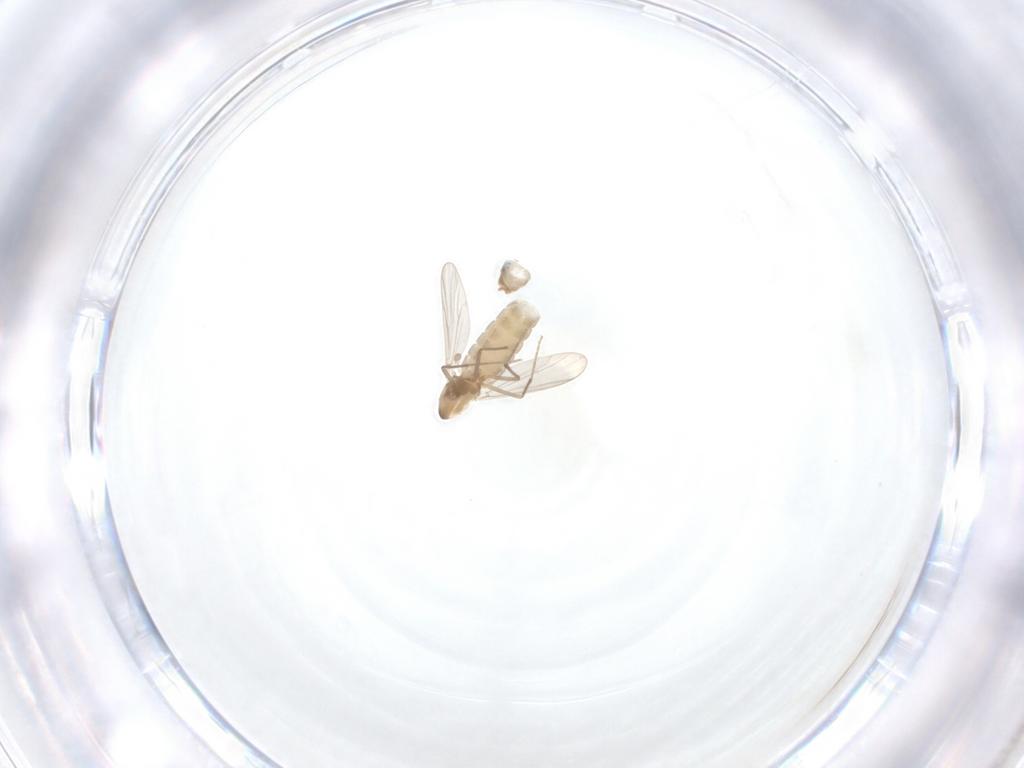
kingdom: Animalia
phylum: Arthropoda
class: Insecta
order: Diptera
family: Chironomidae
